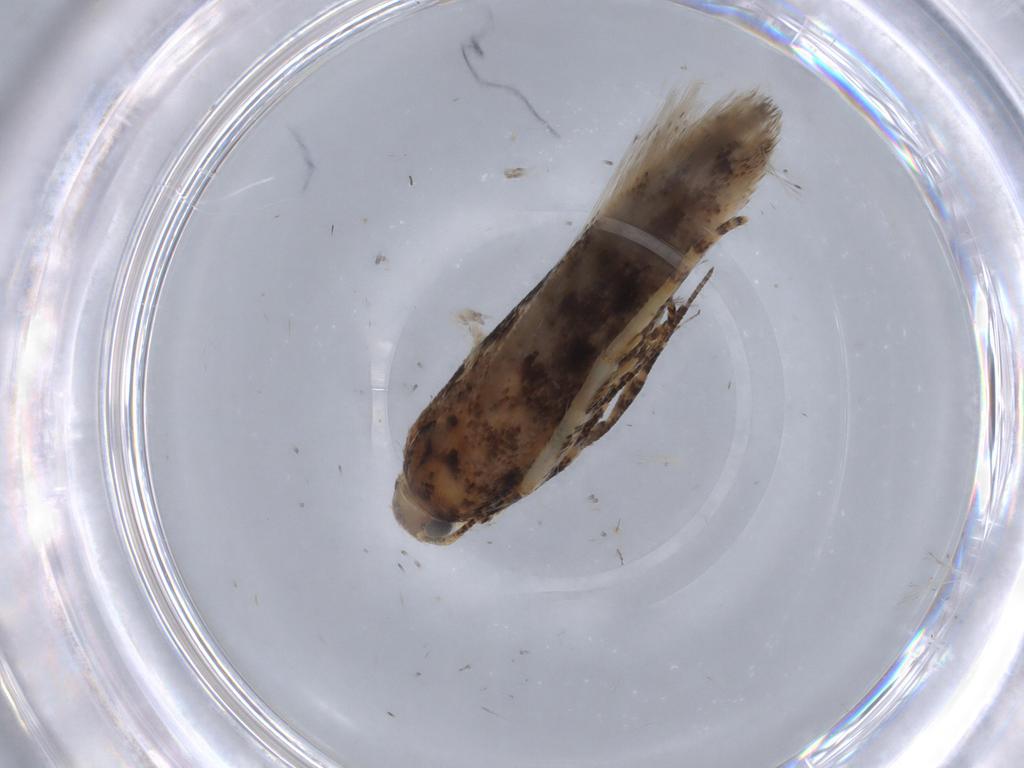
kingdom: Animalia
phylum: Arthropoda
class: Insecta
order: Lepidoptera
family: Gelechiidae
